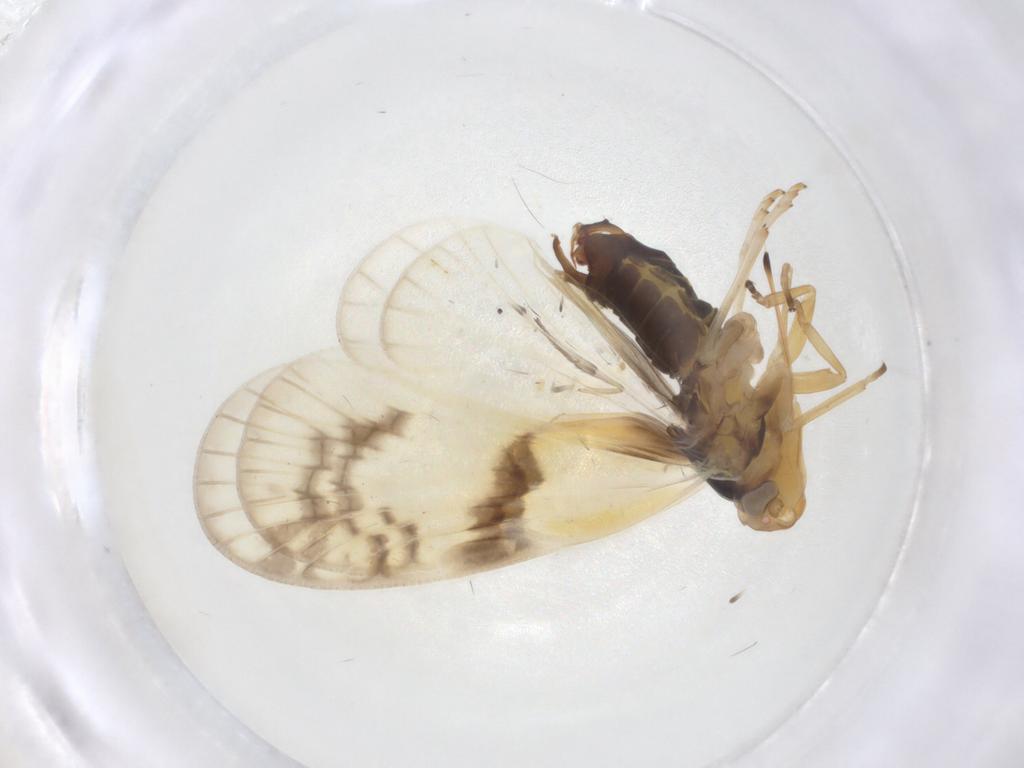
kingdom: Animalia
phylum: Arthropoda
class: Insecta
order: Hemiptera
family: Cixiidae
